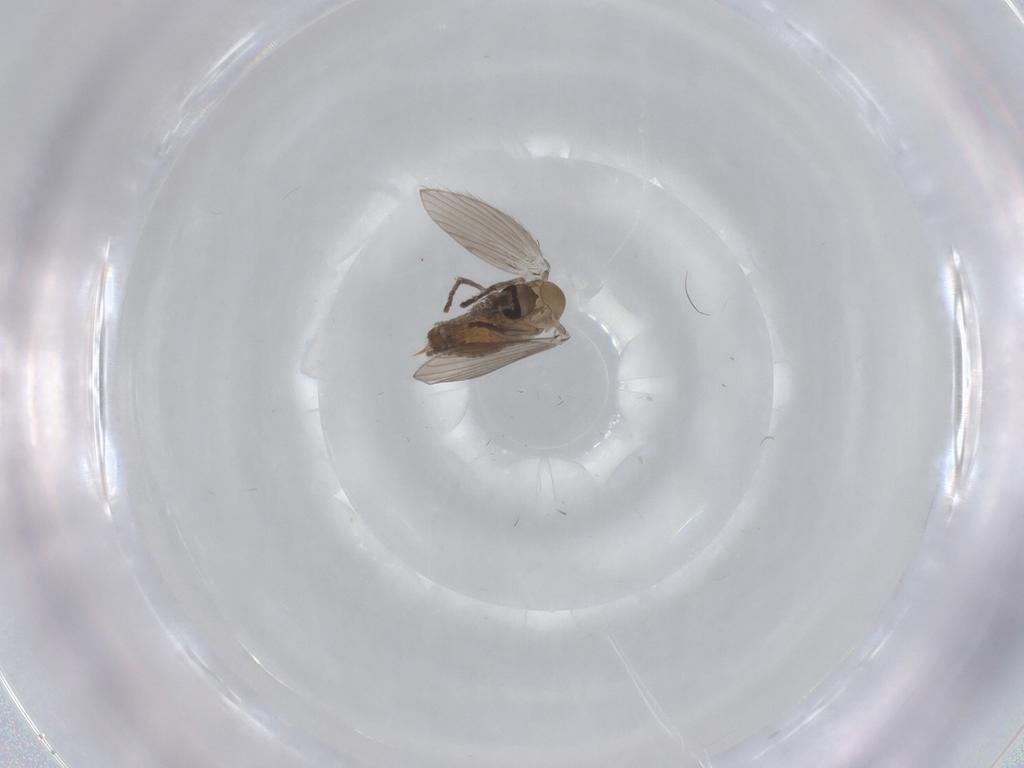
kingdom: Animalia
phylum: Arthropoda
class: Insecta
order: Diptera
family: Psychodidae
